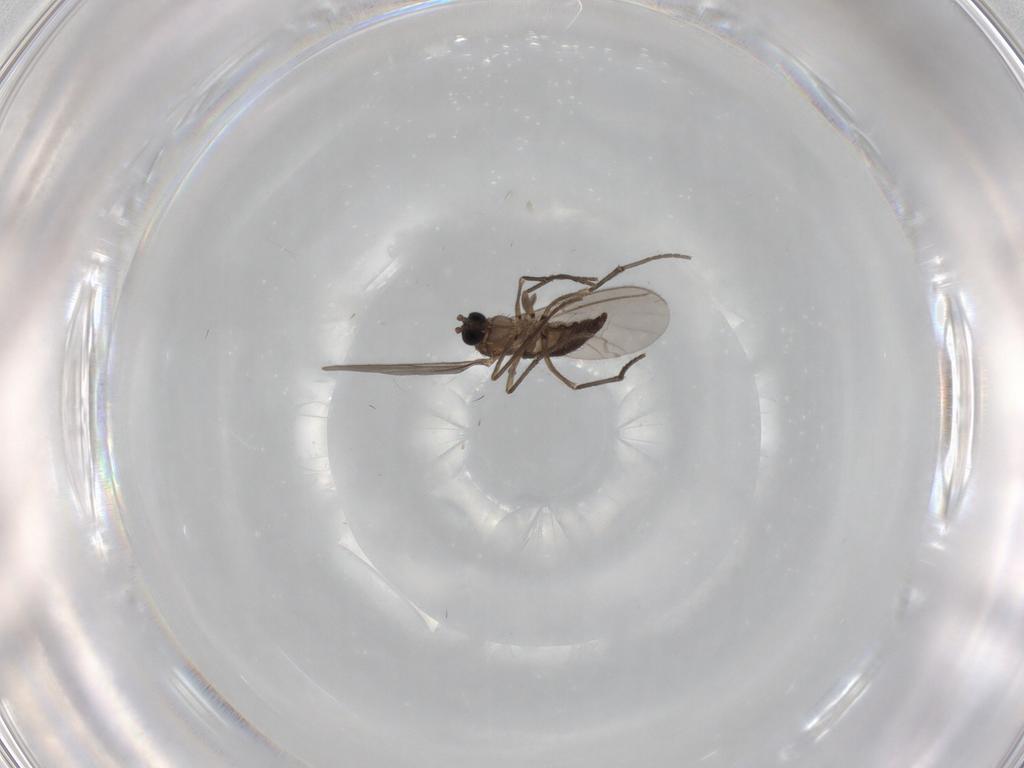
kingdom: Animalia
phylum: Arthropoda
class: Insecta
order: Diptera
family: Sciaridae
